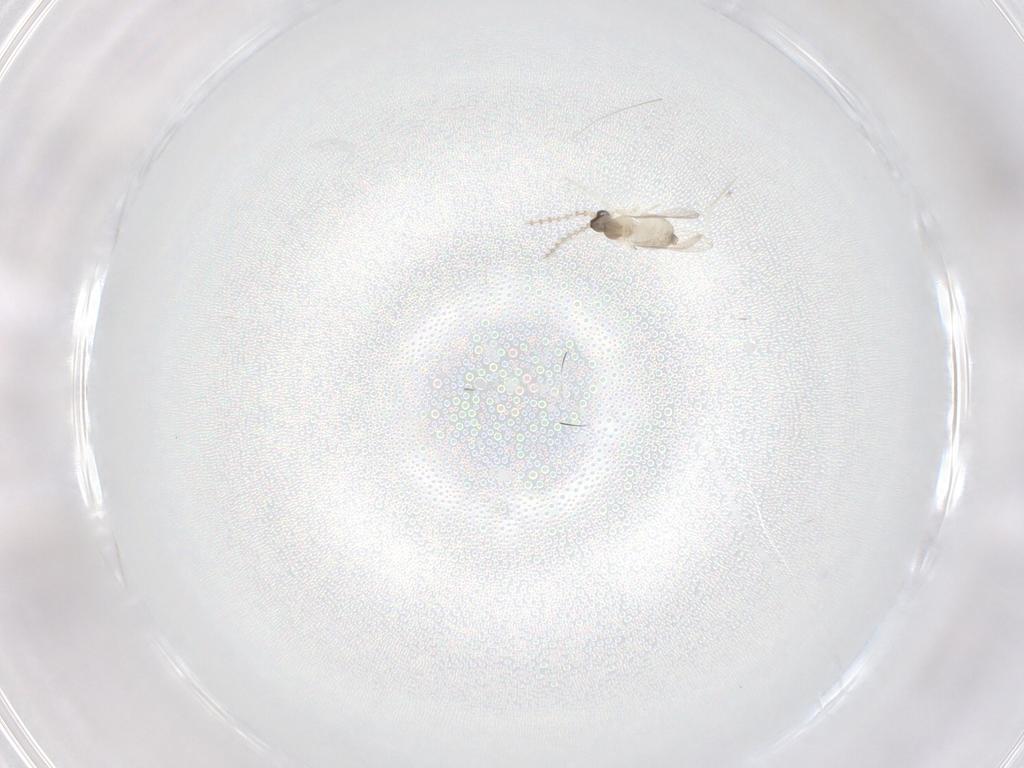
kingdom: Animalia
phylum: Arthropoda
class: Insecta
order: Diptera
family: Cecidomyiidae
